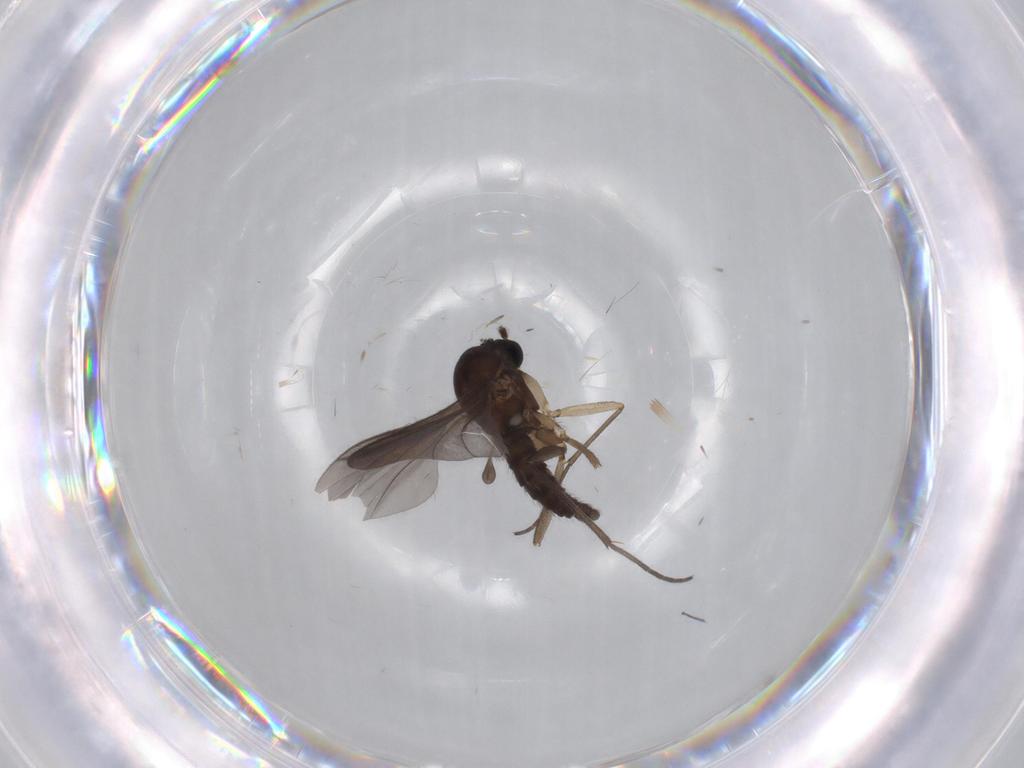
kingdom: Animalia
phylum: Arthropoda
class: Insecta
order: Diptera
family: Sciaridae
